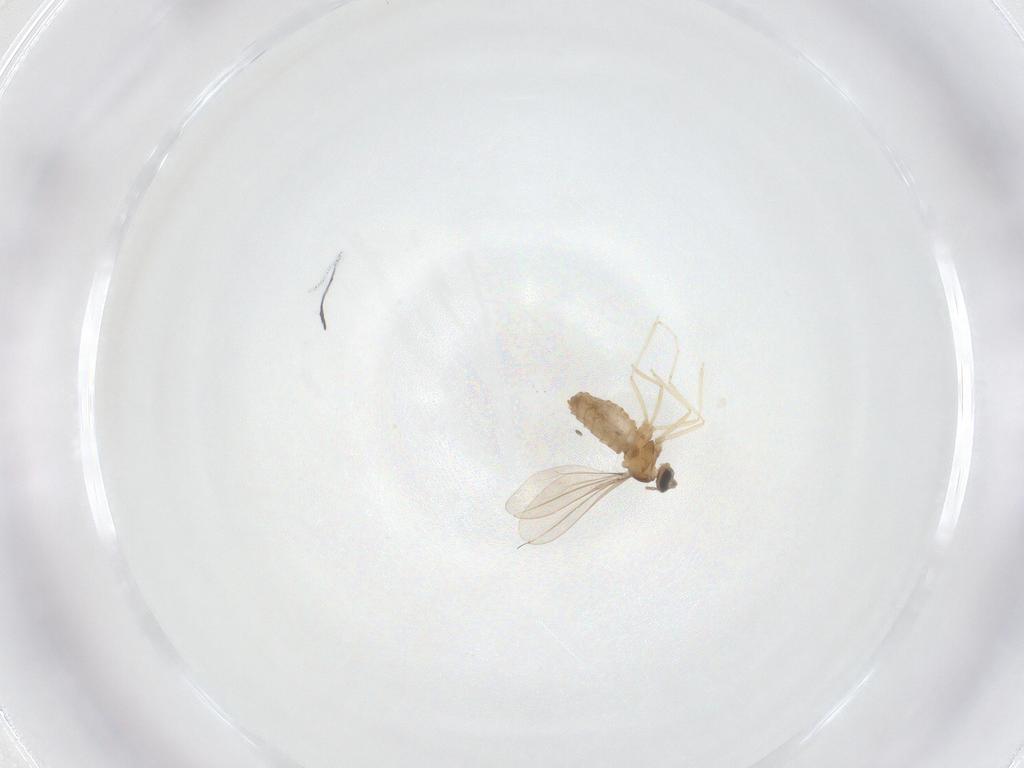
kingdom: Animalia
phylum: Arthropoda
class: Insecta
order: Diptera
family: Cecidomyiidae
